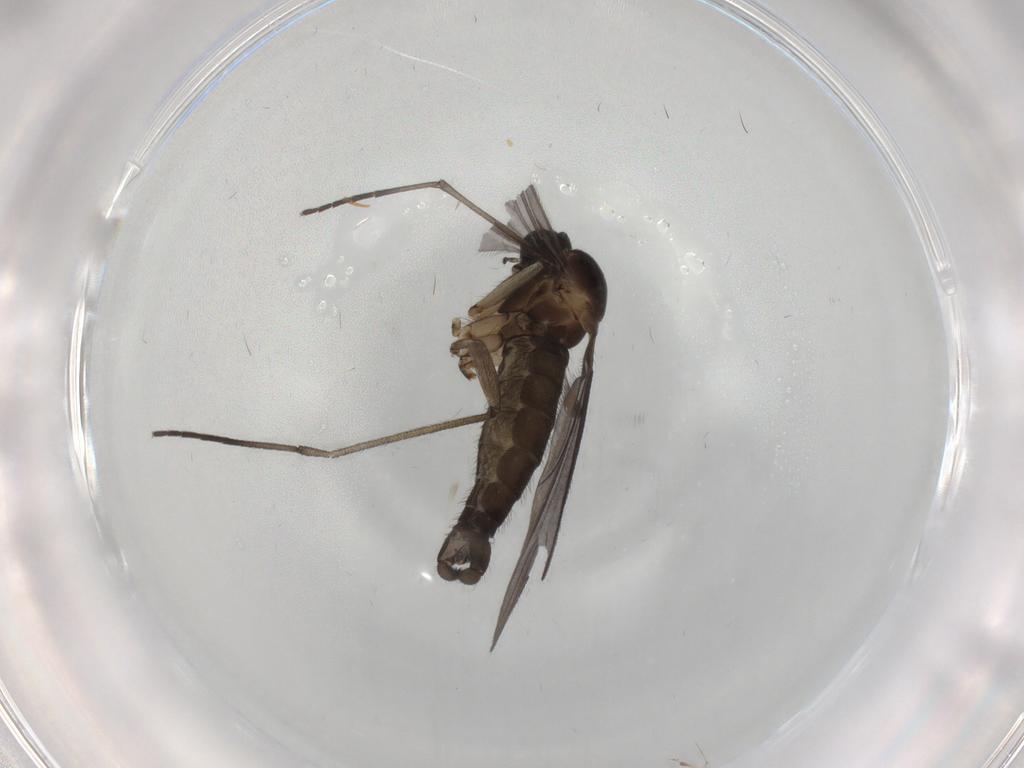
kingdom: Animalia
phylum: Arthropoda
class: Insecta
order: Diptera
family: Sciaridae
